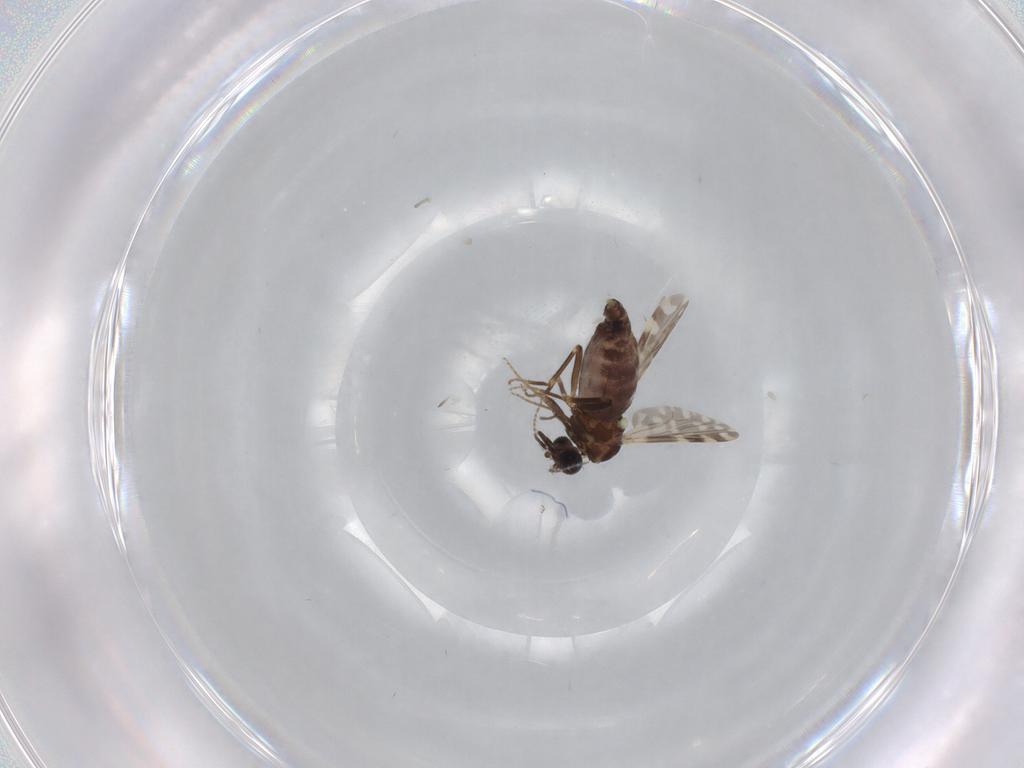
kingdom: Animalia
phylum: Arthropoda
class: Insecta
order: Diptera
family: Ceratopogonidae
